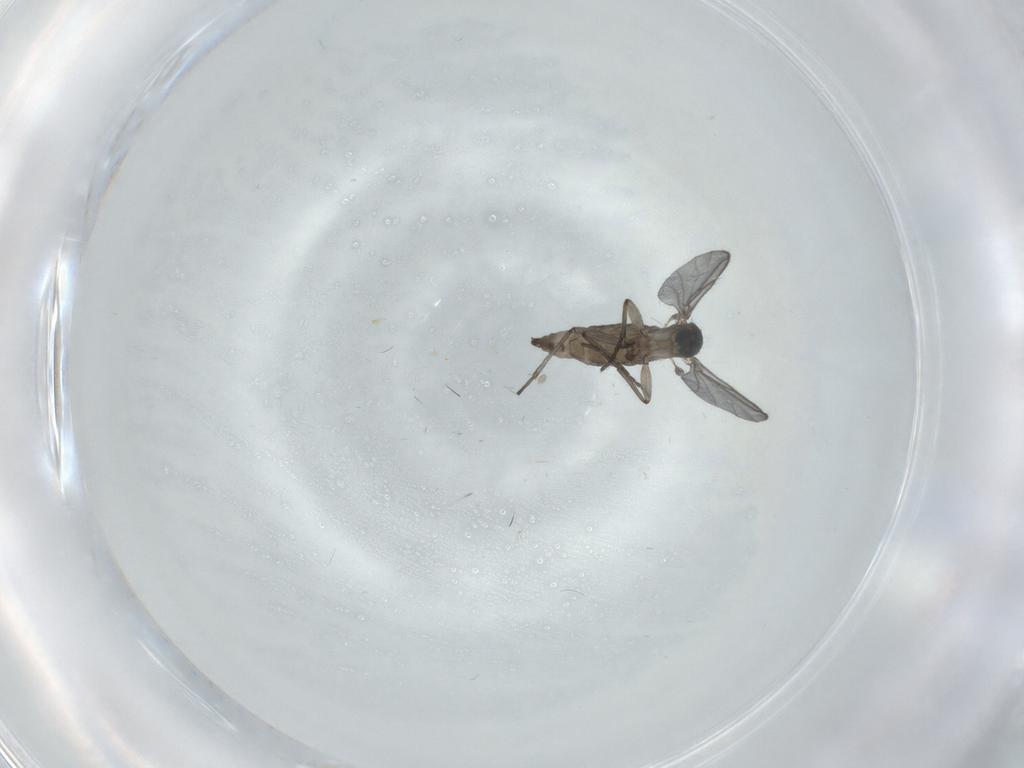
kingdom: Animalia
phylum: Arthropoda
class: Insecta
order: Diptera
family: Sciaridae
